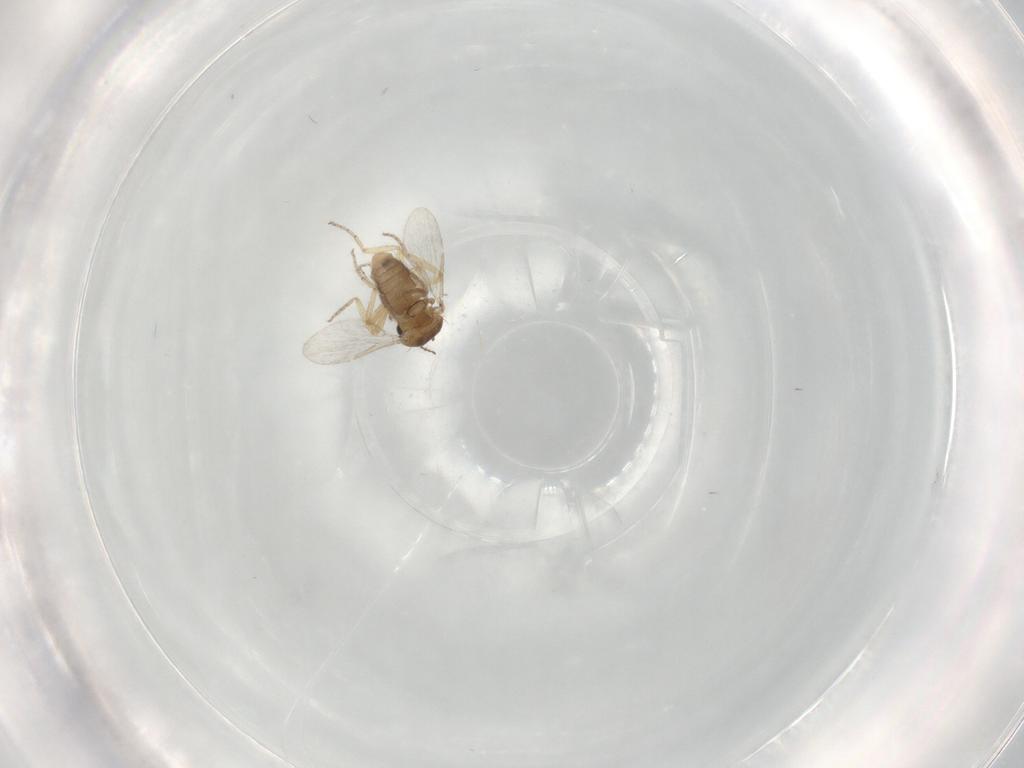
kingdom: Animalia
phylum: Arthropoda
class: Insecta
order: Diptera
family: Ceratopogonidae
